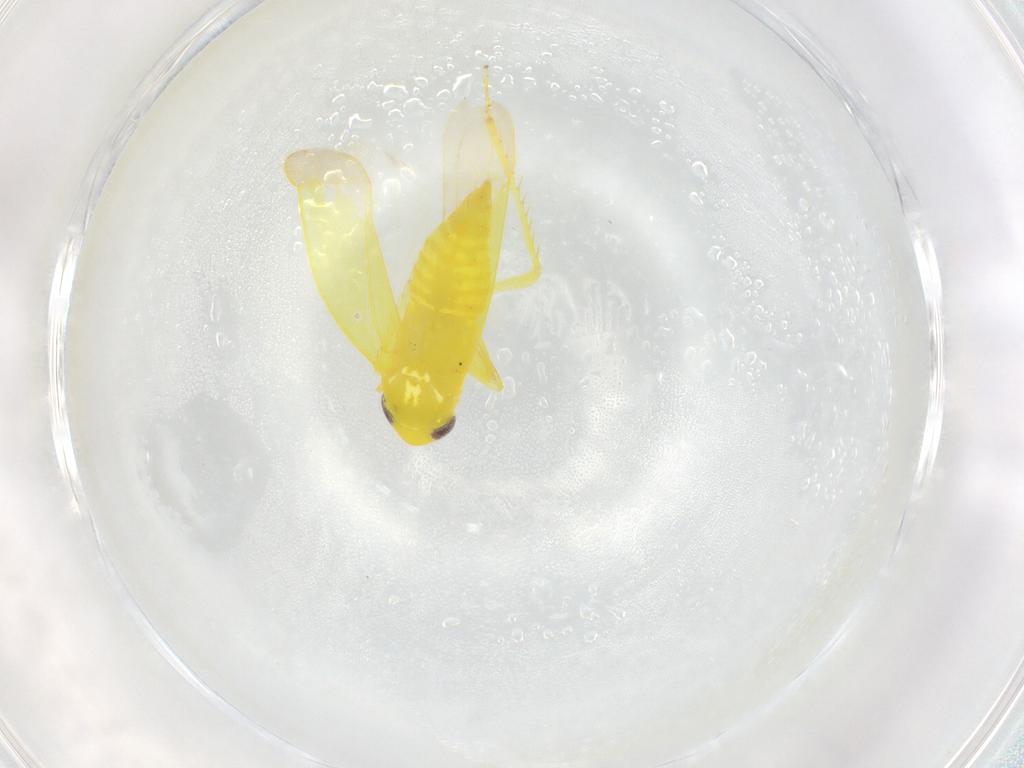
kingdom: Animalia
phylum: Arthropoda
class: Insecta
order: Hemiptera
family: Cicadellidae
